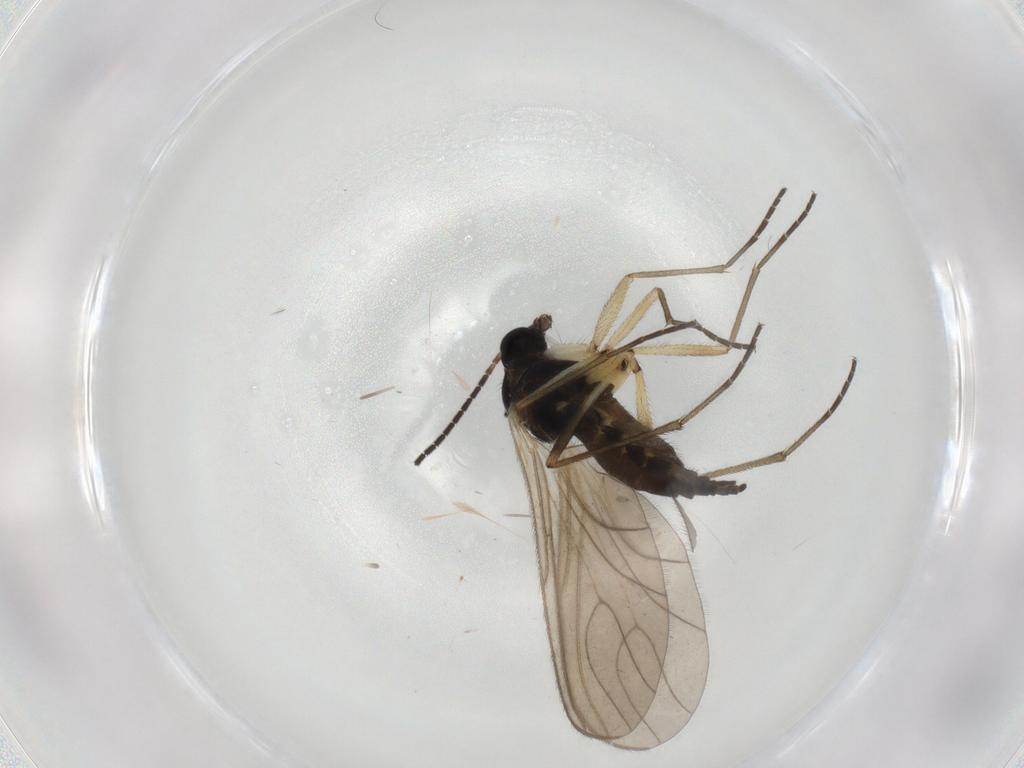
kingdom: Animalia
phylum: Arthropoda
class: Insecta
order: Diptera
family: Sciaridae
